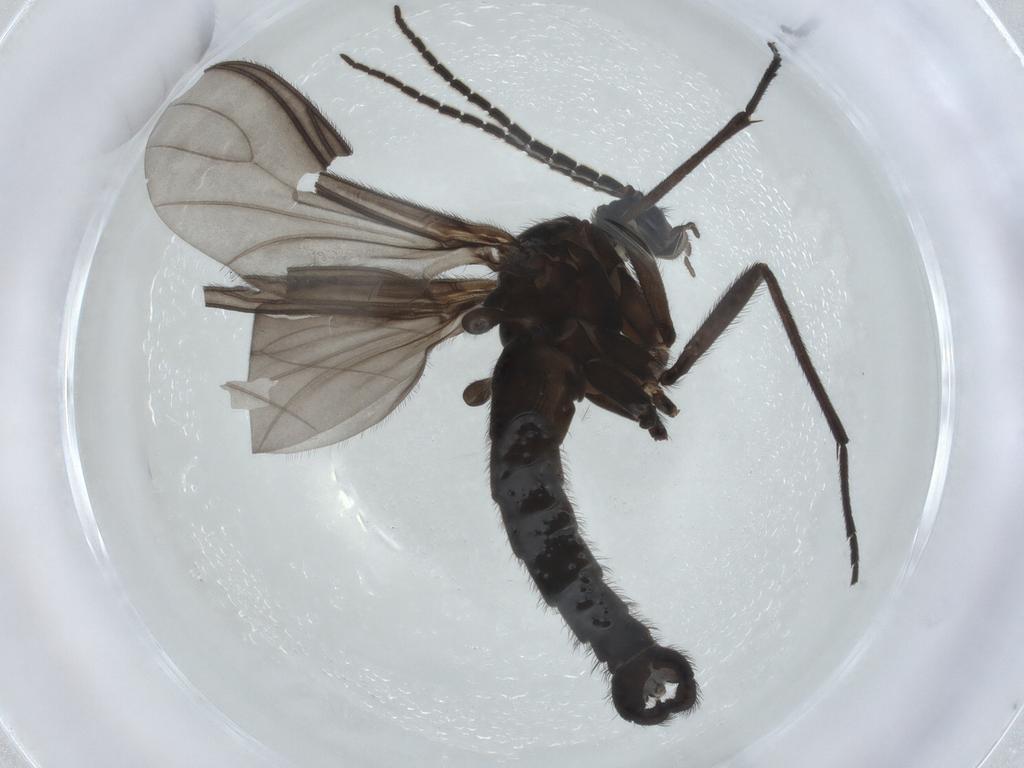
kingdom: Animalia
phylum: Arthropoda
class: Insecta
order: Diptera
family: Sciaridae
